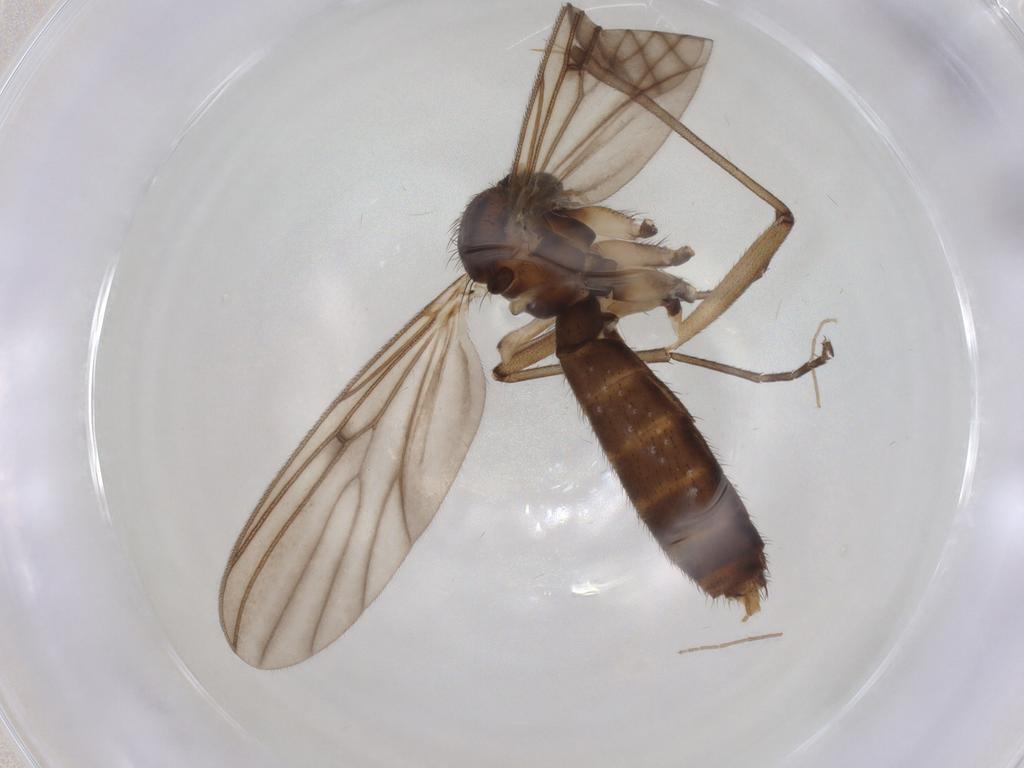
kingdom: Animalia
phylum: Arthropoda
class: Insecta
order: Diptera
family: Mycetophilidae
